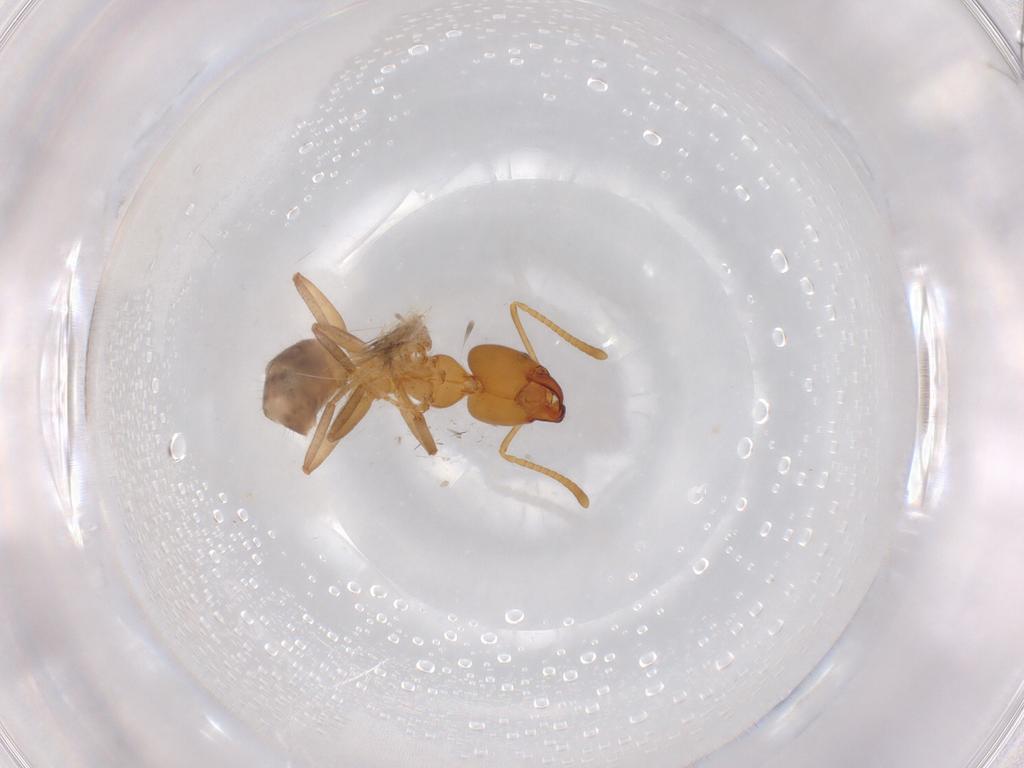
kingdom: Animalia
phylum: Arthropoda
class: Insecta
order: Hymenoptera
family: Formicidae
